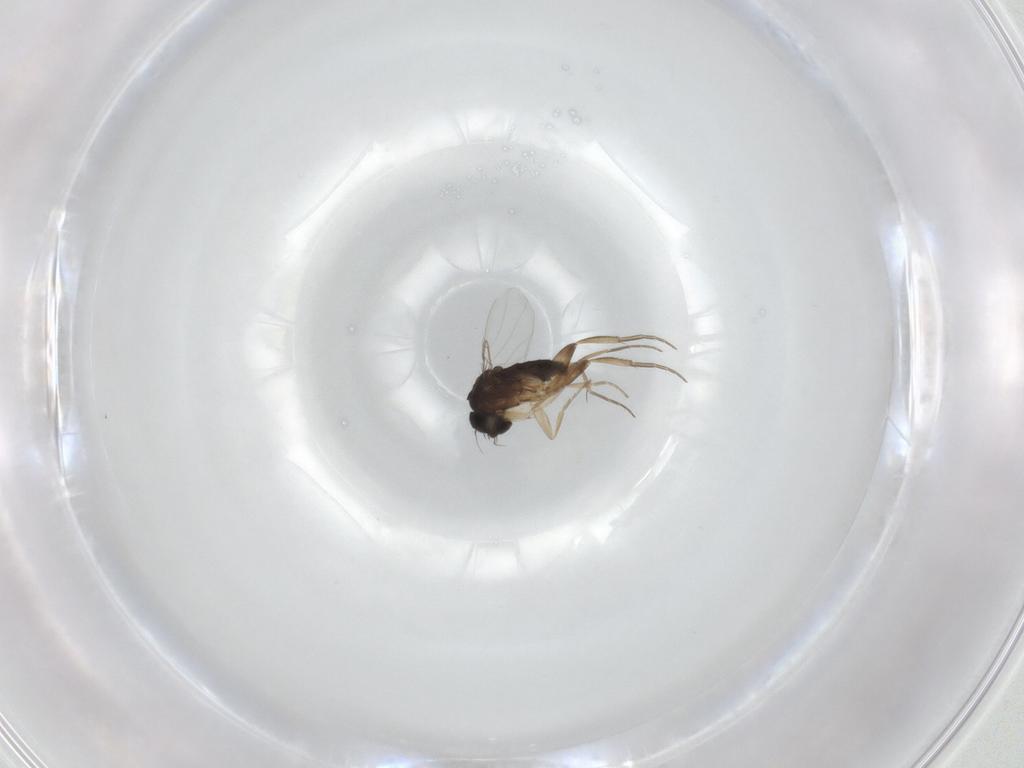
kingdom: Animalia
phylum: Arthropoda
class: Insecta
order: Diptera
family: Phoridae
